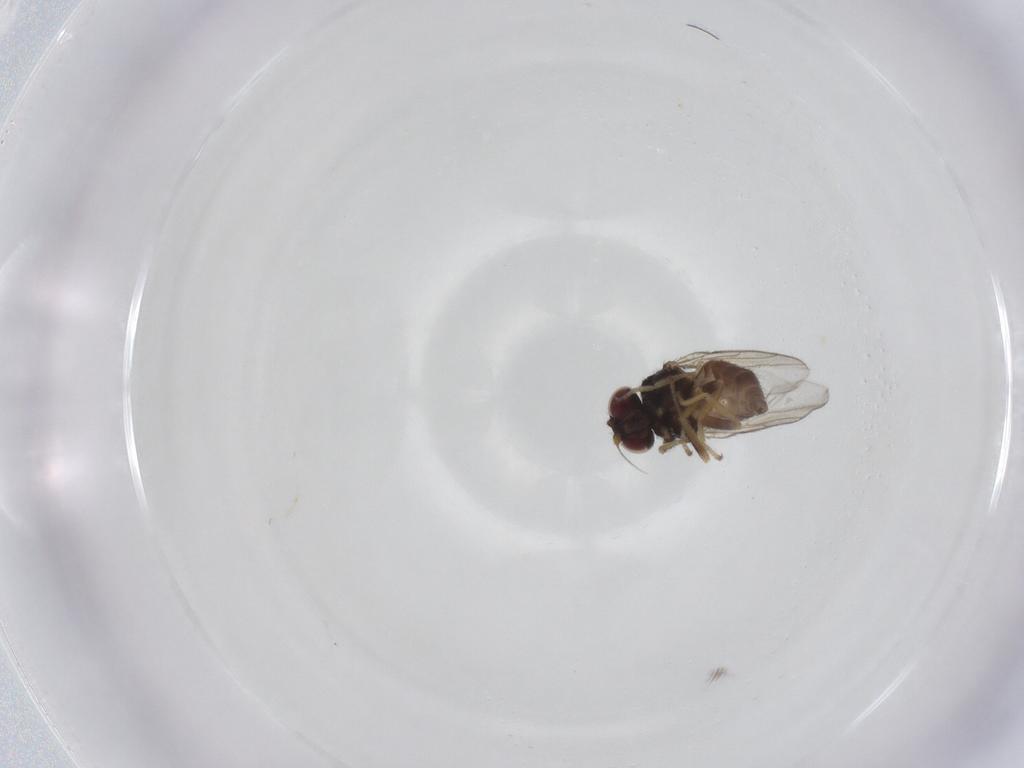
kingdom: Animalia
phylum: Arthropoda
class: Insecta
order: Diptera
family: Chloropidae
